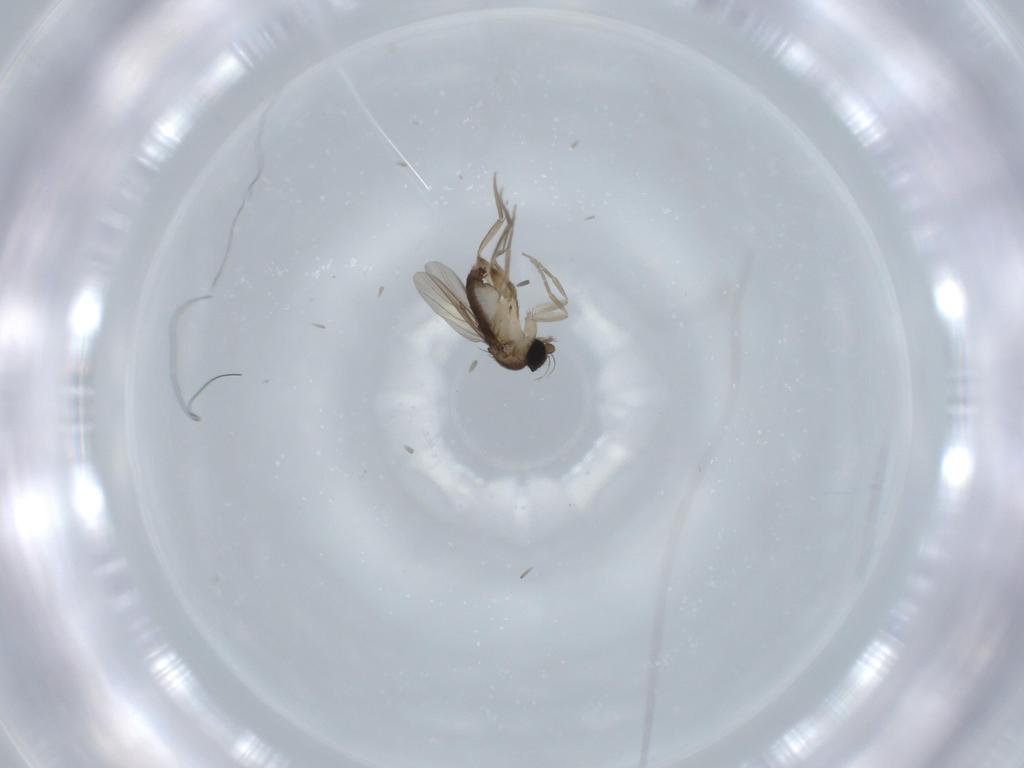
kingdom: Animalia
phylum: Arthropoda
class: Insecta
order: Diptera
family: Phoridae
